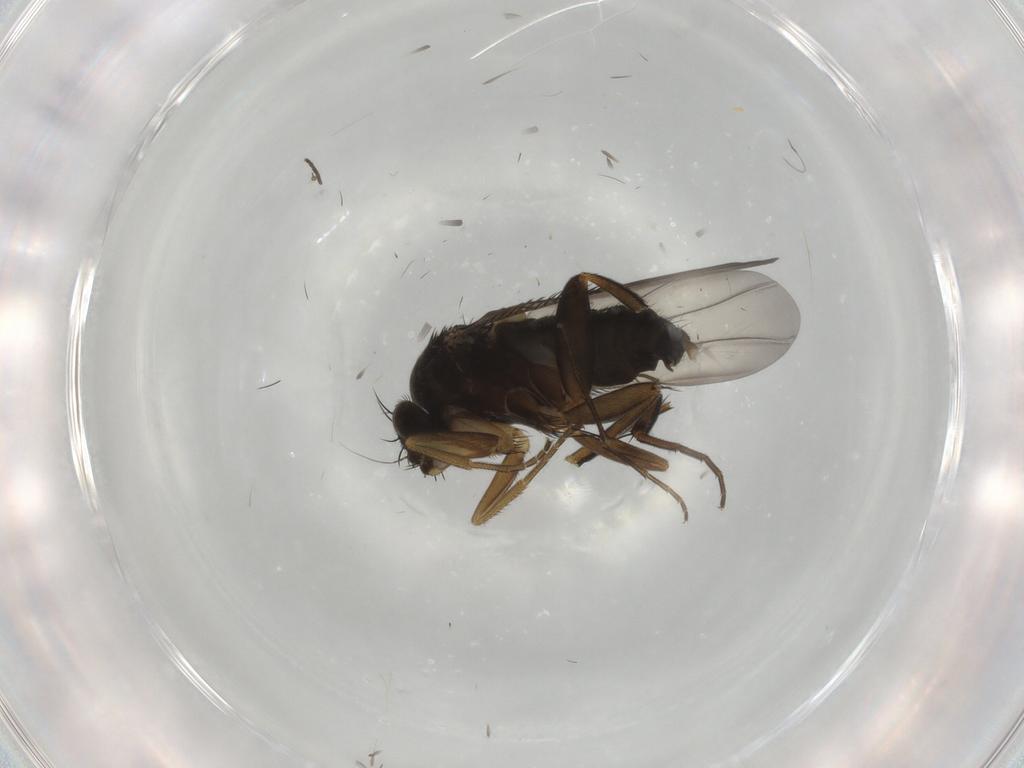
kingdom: Animalia
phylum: Arthropoda
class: Insecta
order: Diptera
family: Phoridae
